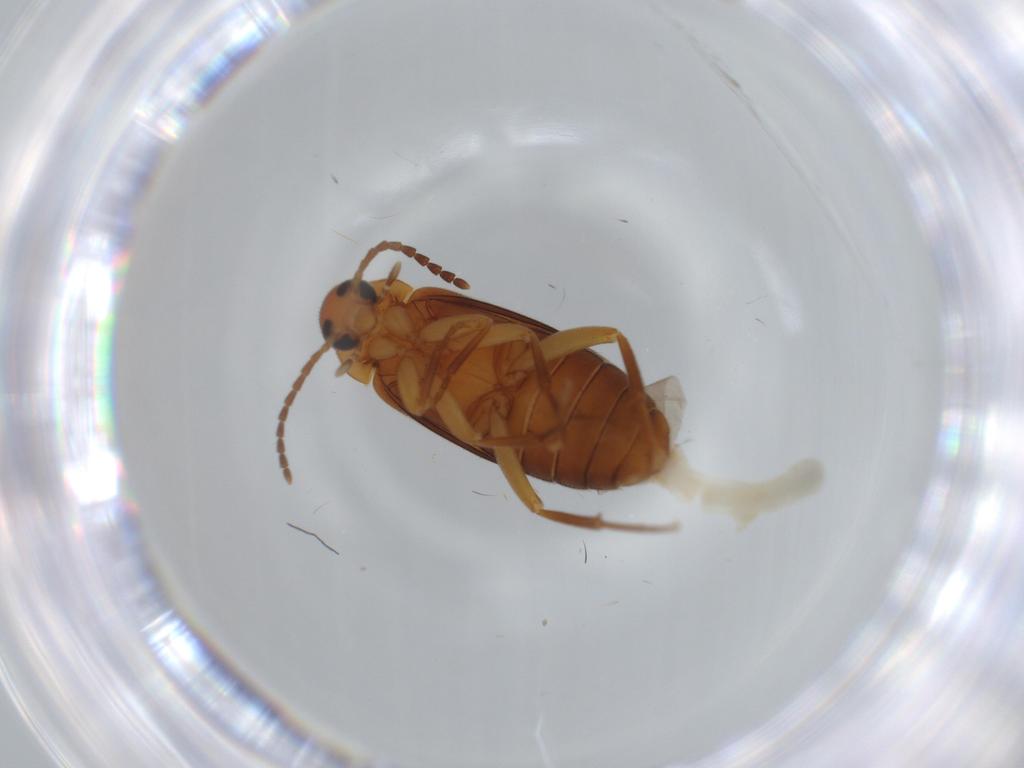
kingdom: Animalia
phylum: Arthropoda
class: Insecta
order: Coleoptera
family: Scraptiidae
